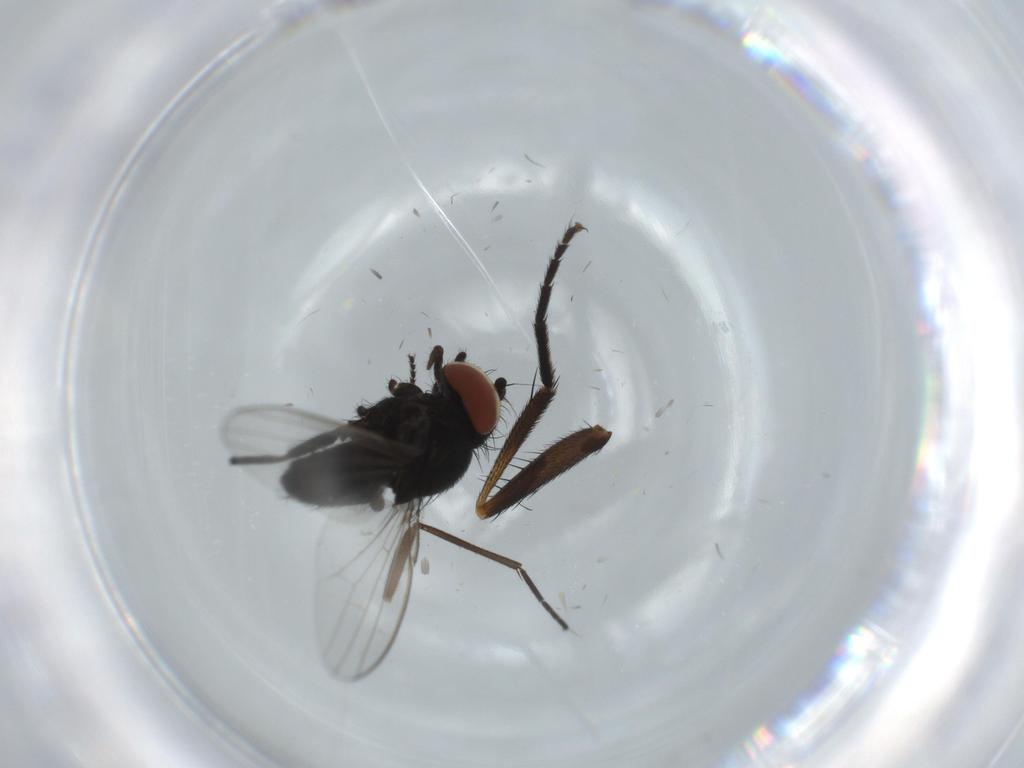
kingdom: Animalia
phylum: Arthropoda
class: Insecta
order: Diptera
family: Fannia
